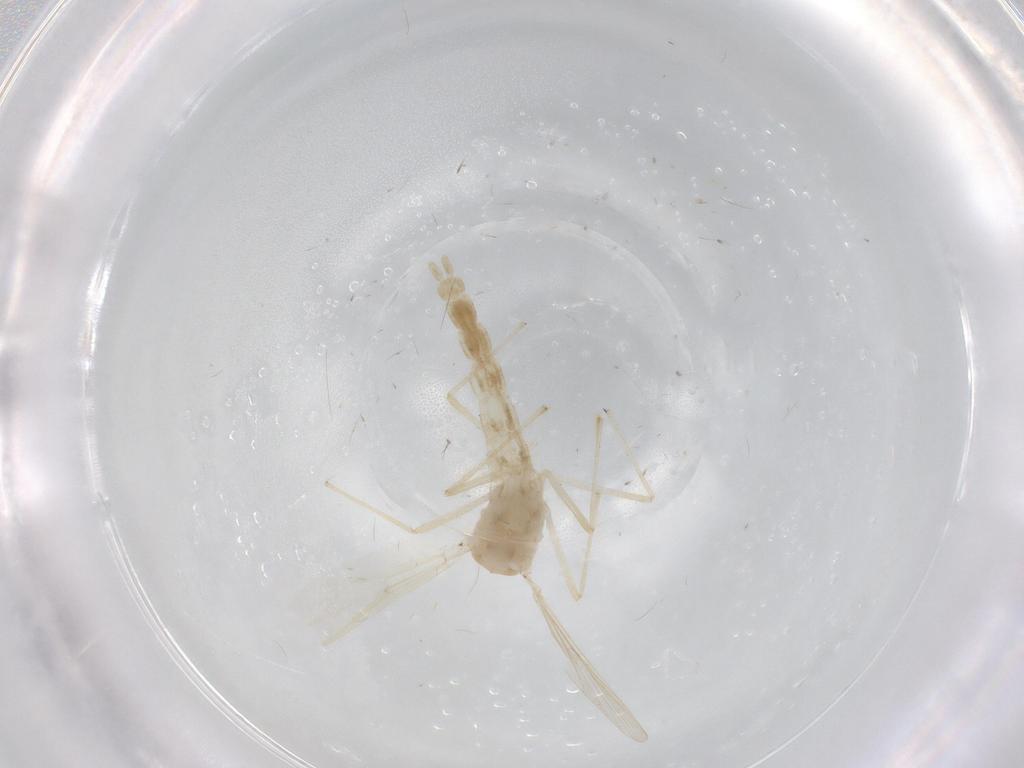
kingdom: Animalia
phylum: Arthropoda
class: Insecta
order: Diptera
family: Chironomidae
